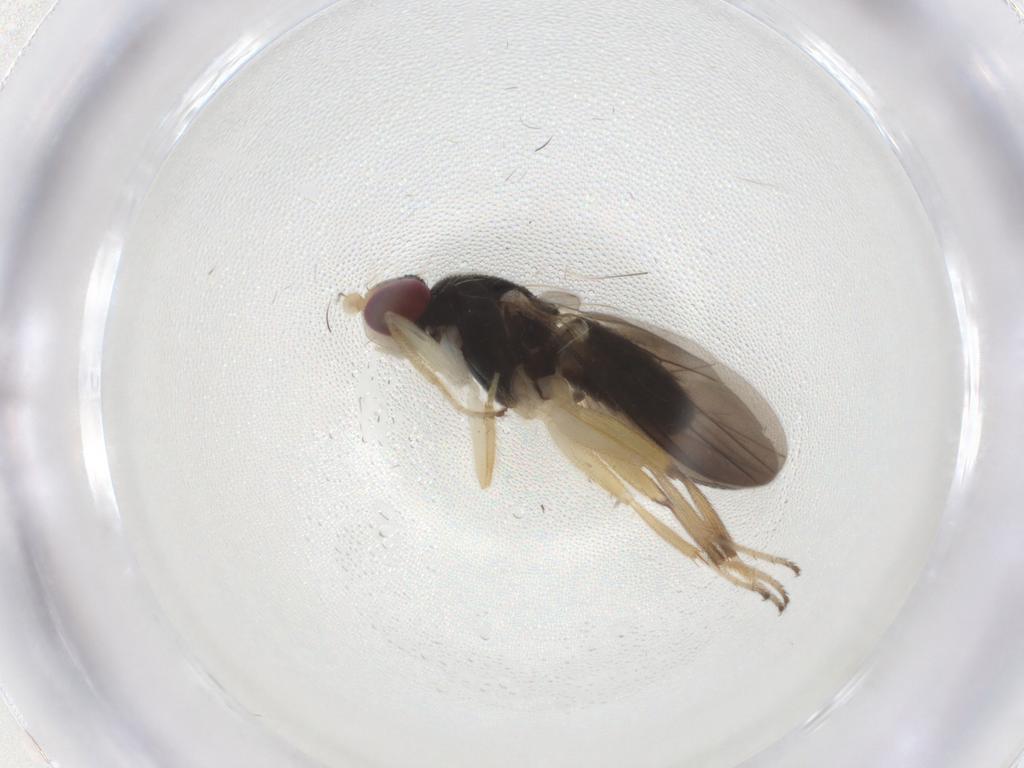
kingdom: Animalia
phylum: Arthropoda
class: Insecta
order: Diptera
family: Clusiidae
